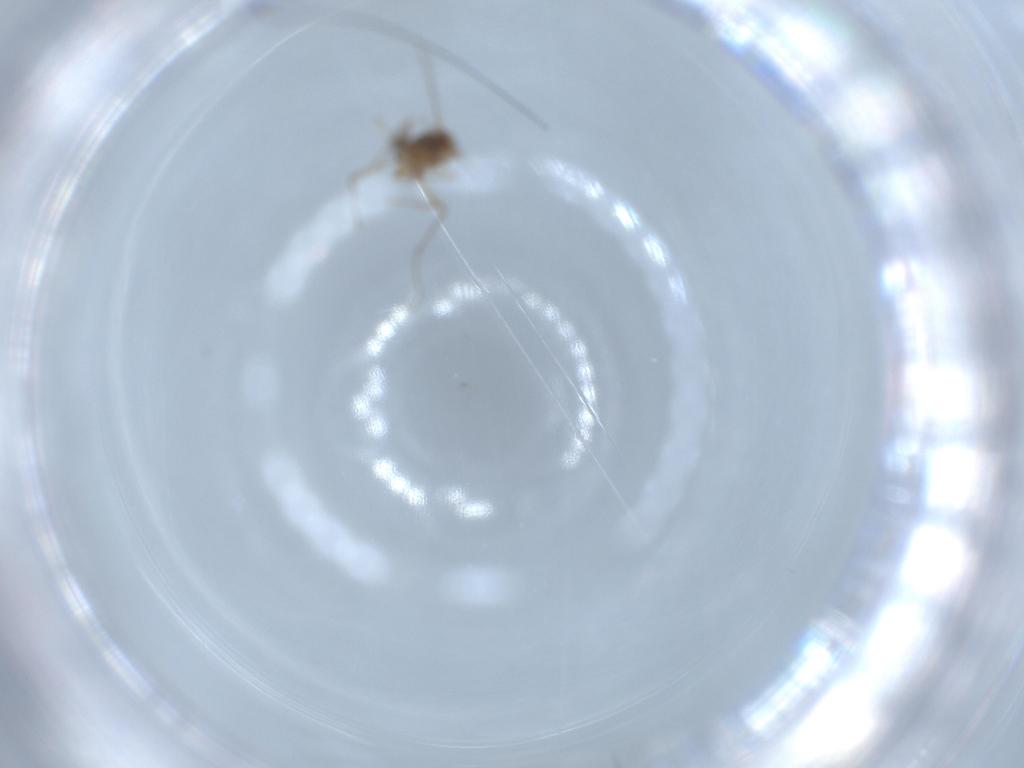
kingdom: Animalia
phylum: Arthropoda
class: Insecta
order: Diptera
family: Chironomidae
